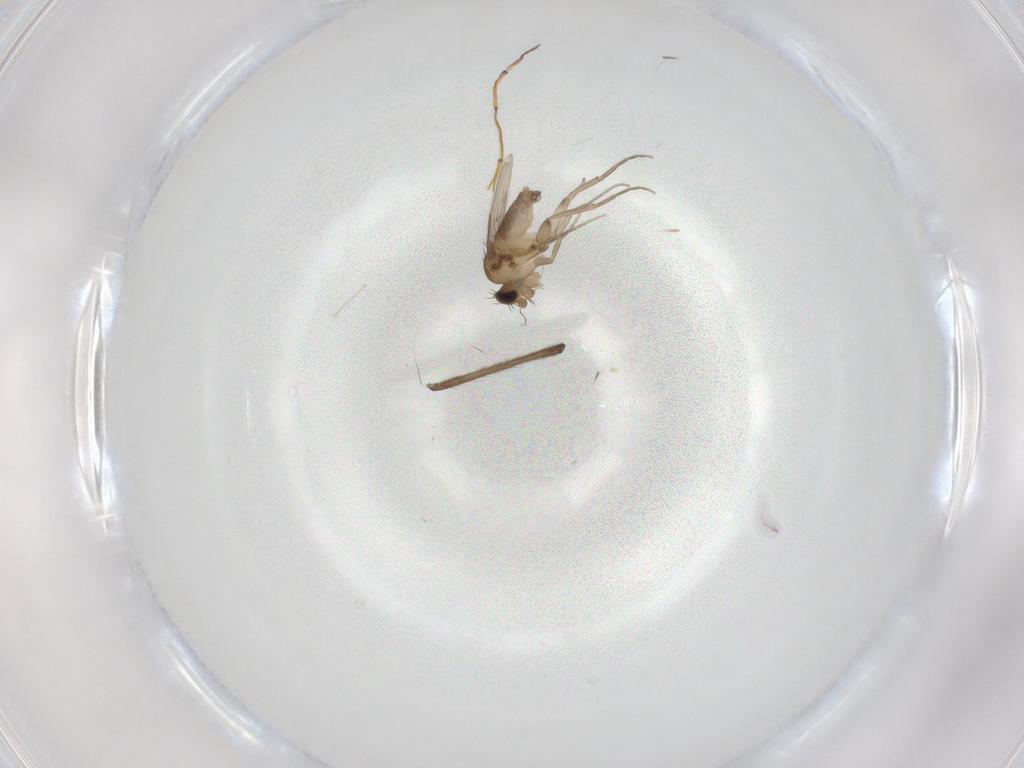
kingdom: Animalia
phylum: Arthropoda
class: Insecta
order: Diptera
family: Phoridae
